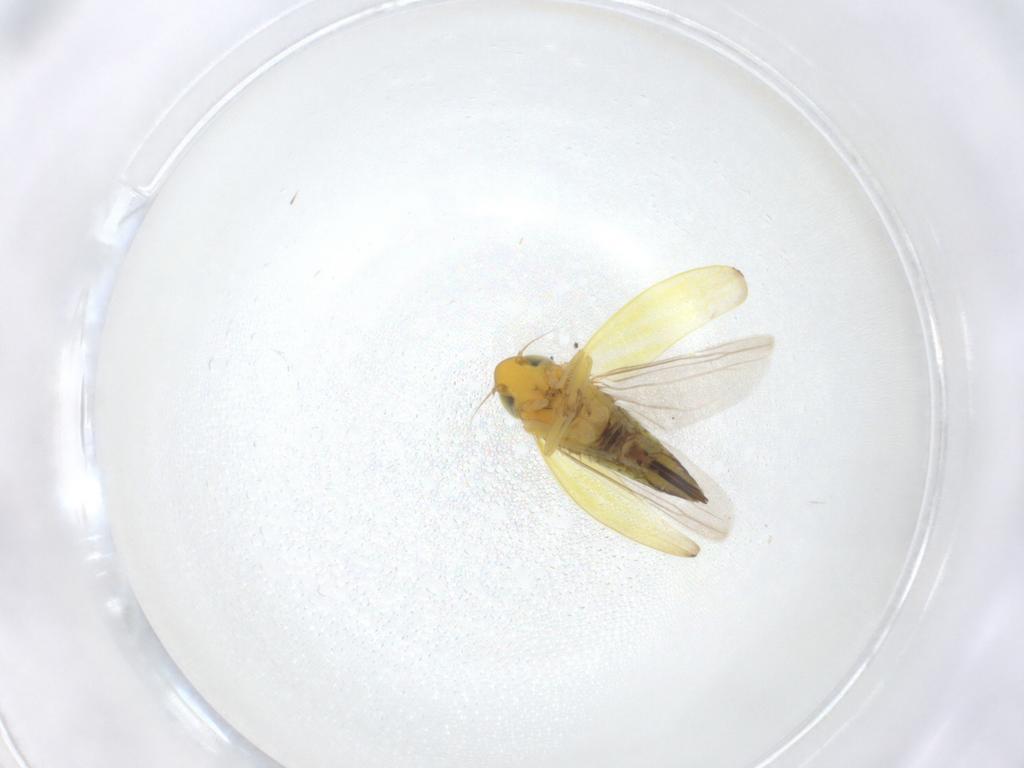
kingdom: Animalia
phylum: Arthropoda
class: Insecta
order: Hemiptera
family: Cicadellidae
